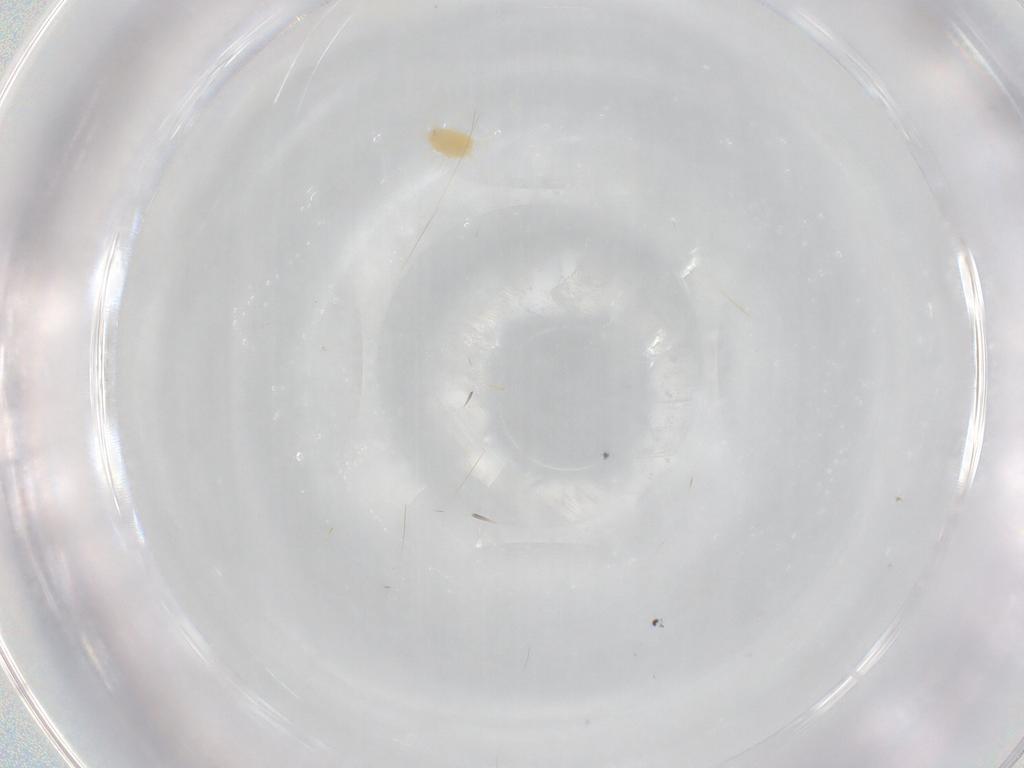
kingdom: Animalia
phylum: Arthropoda
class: Arachnida
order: Trombidiformes
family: Tetranychidae
